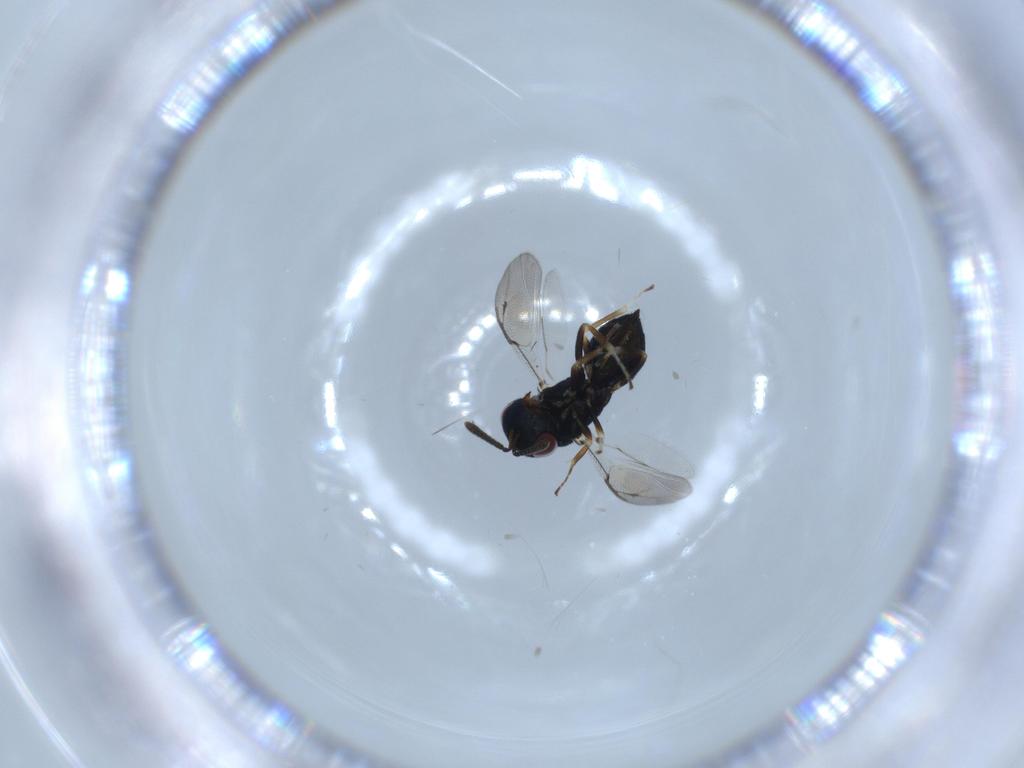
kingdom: Animalia
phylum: Arthropoda
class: Insecta
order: Hymenoptera
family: Pteromalidae
